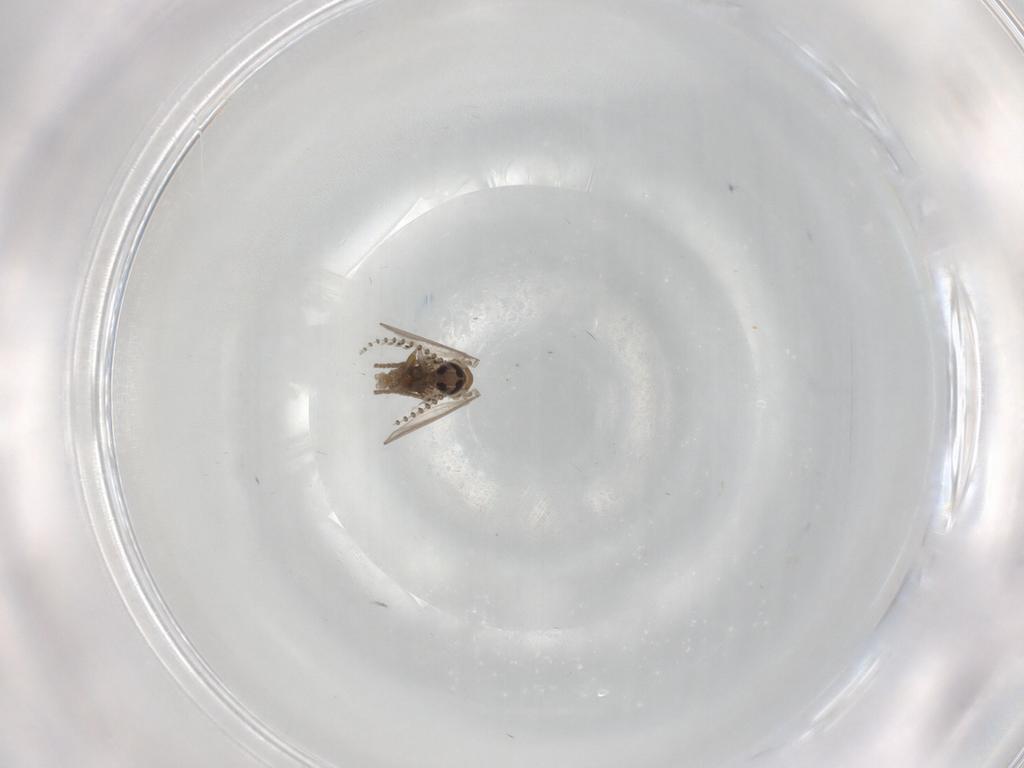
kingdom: Animalia
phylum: Arthropoda
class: Insecta
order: Diptera
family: Psychodidae
